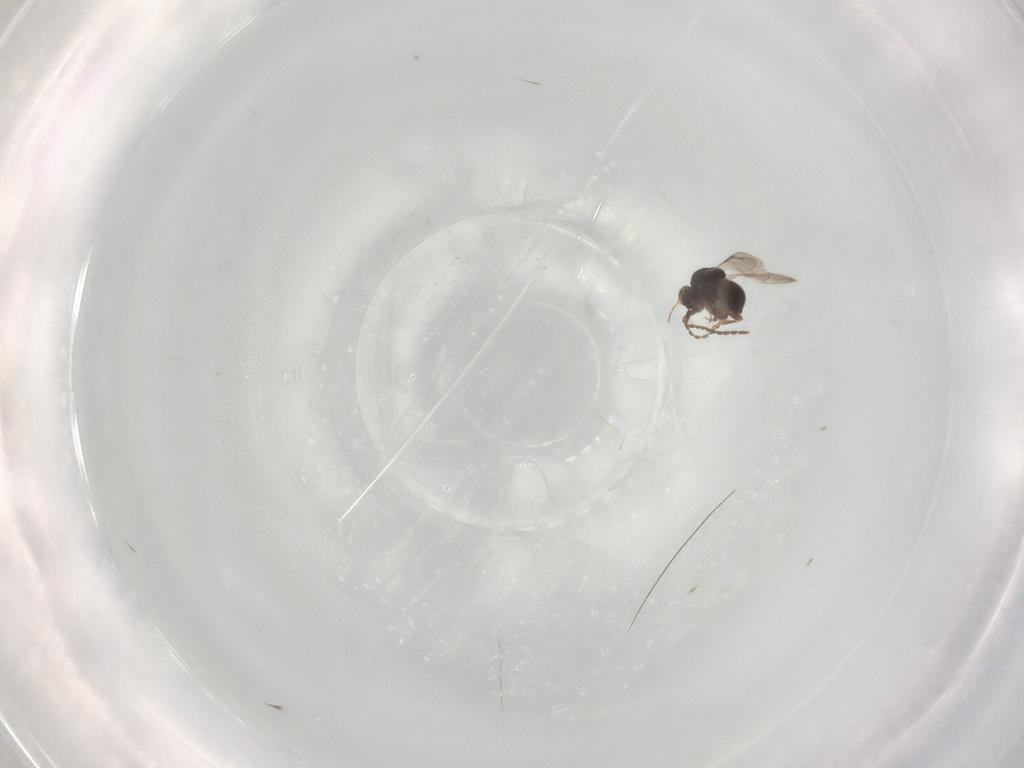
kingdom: Animalia
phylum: Arthropoda
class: Insecta
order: Hymenoptera
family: Ceraphronidae
